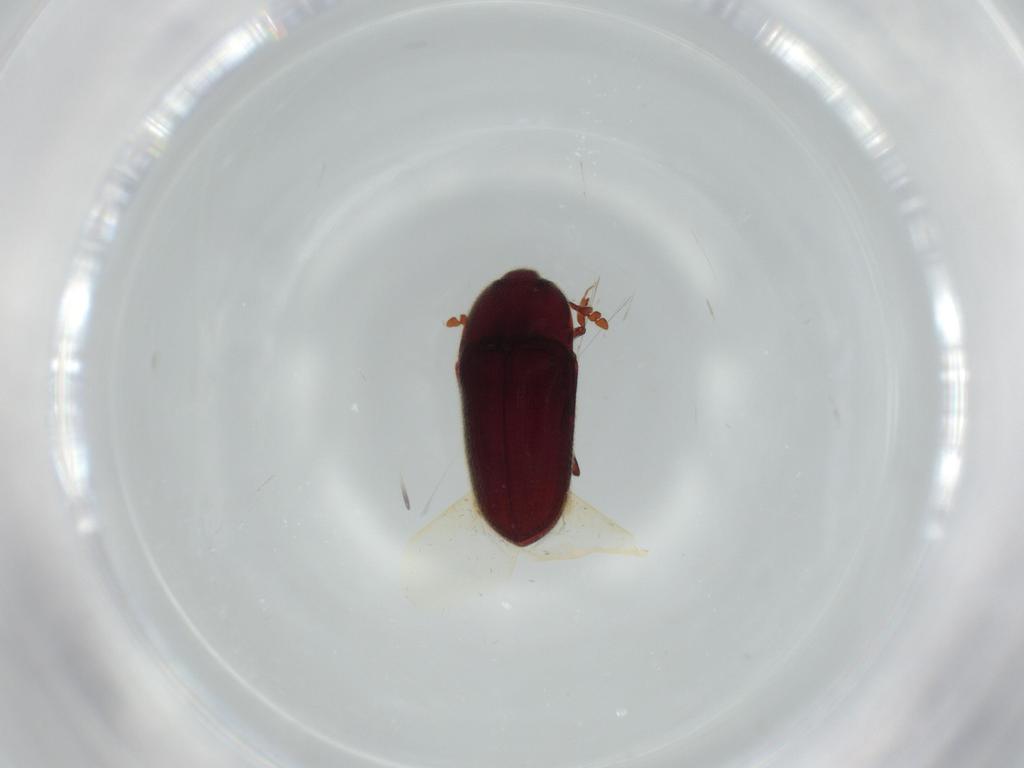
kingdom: Animalia
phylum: Arthropoda
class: Insecta
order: Coleoptera
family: Throscidae
